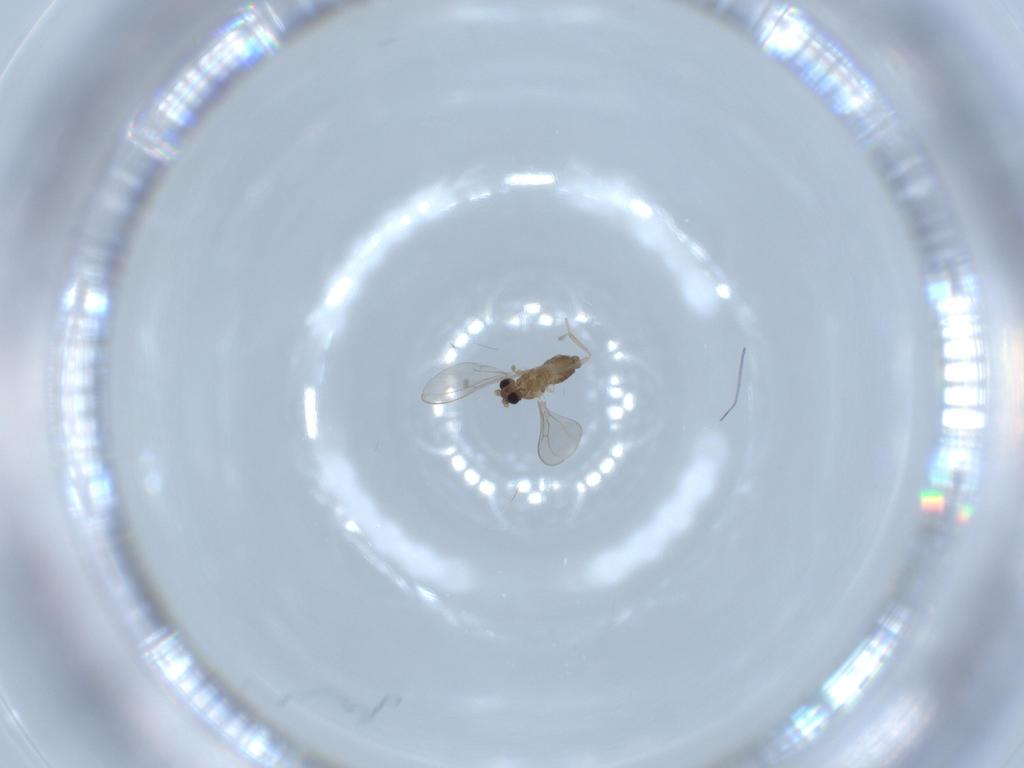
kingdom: Animalia
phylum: Arthropoda
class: Insecta
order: Diptera
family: Cecidomyiidae
